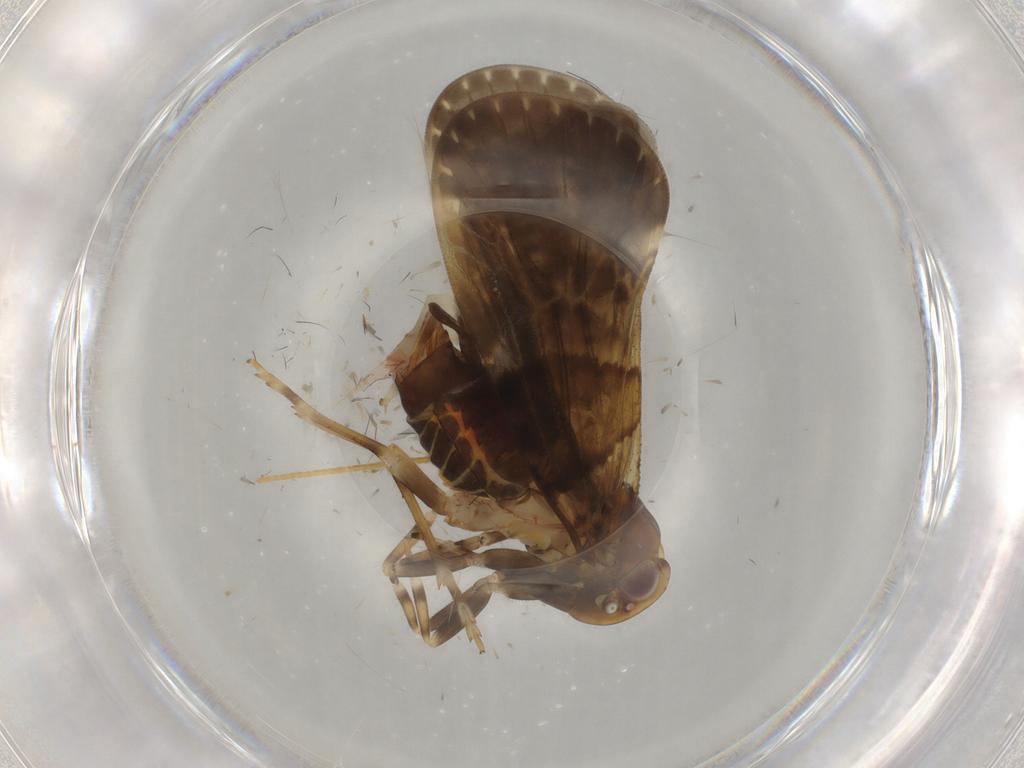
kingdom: Animalia
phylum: Arthropoda
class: Insecta
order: Hemiptera
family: Cixiidae
